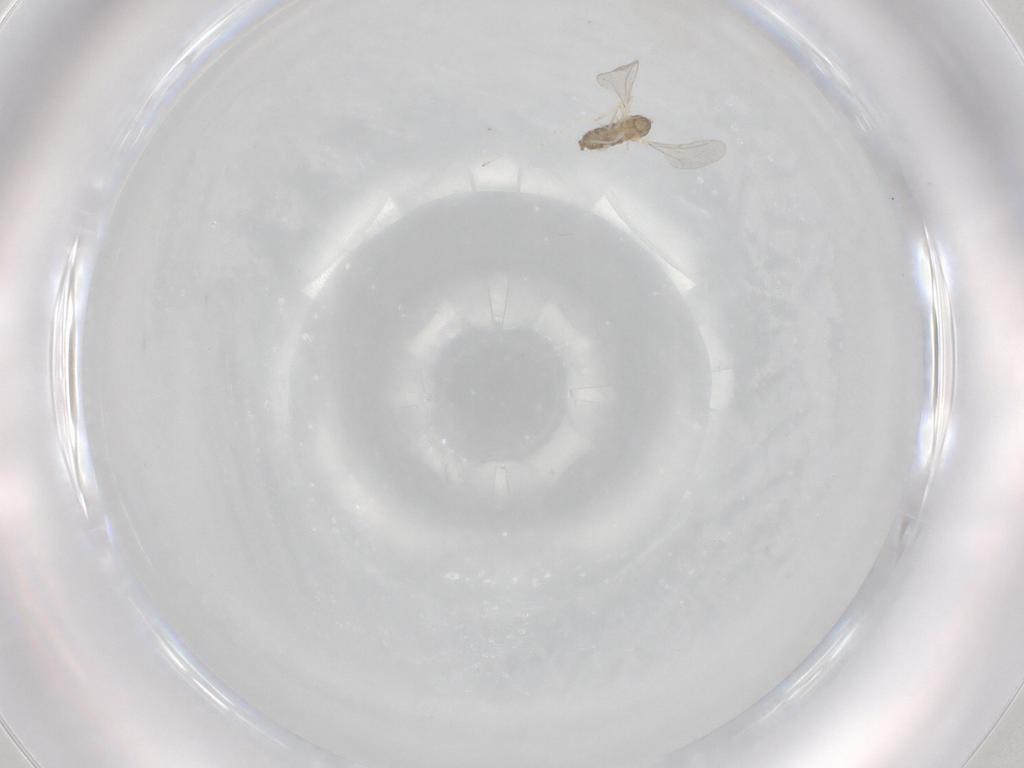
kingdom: Animalia
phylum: Arthropoda
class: Insecta
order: Diptera
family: Cecidomyiidae
